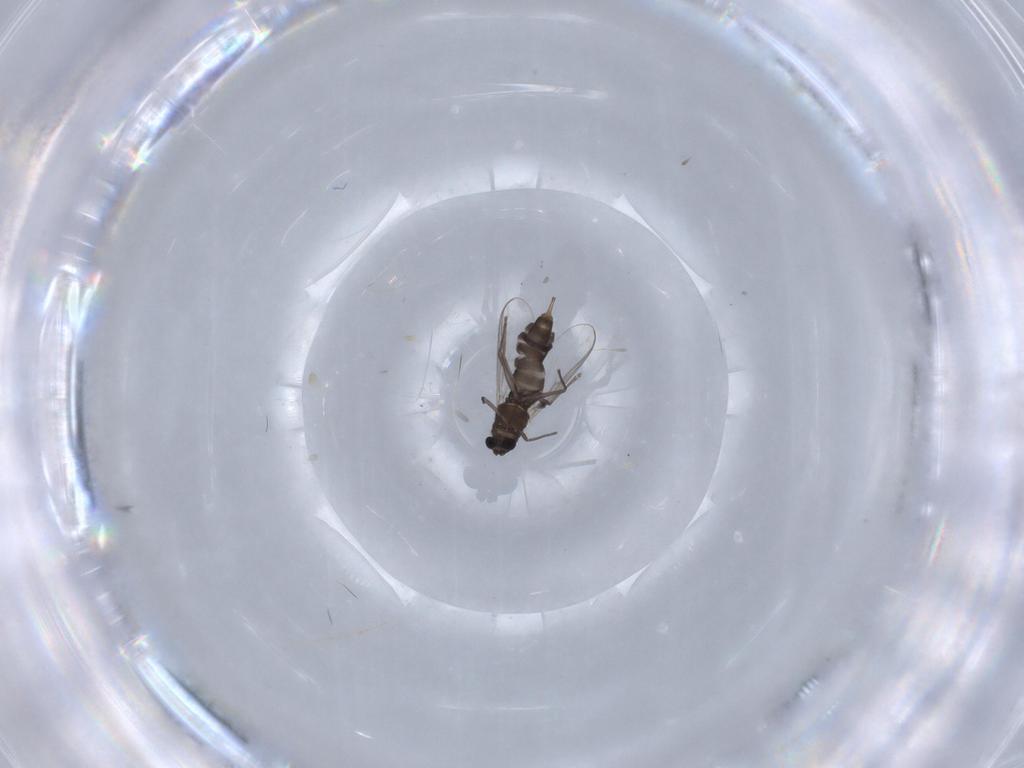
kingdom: Animalia
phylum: Arthropoda
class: Insecta
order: Diptera
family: Chironomidae
